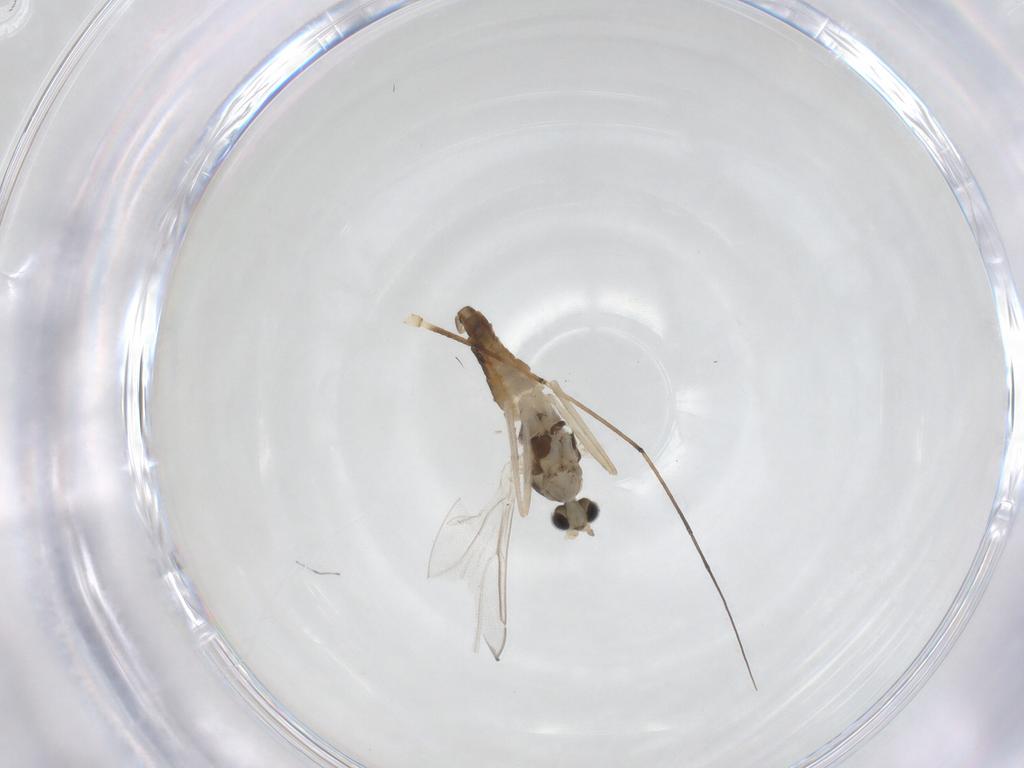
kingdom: Animalia
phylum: Arthropoda
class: Insecta
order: Diptera
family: Cecidomyiidae
